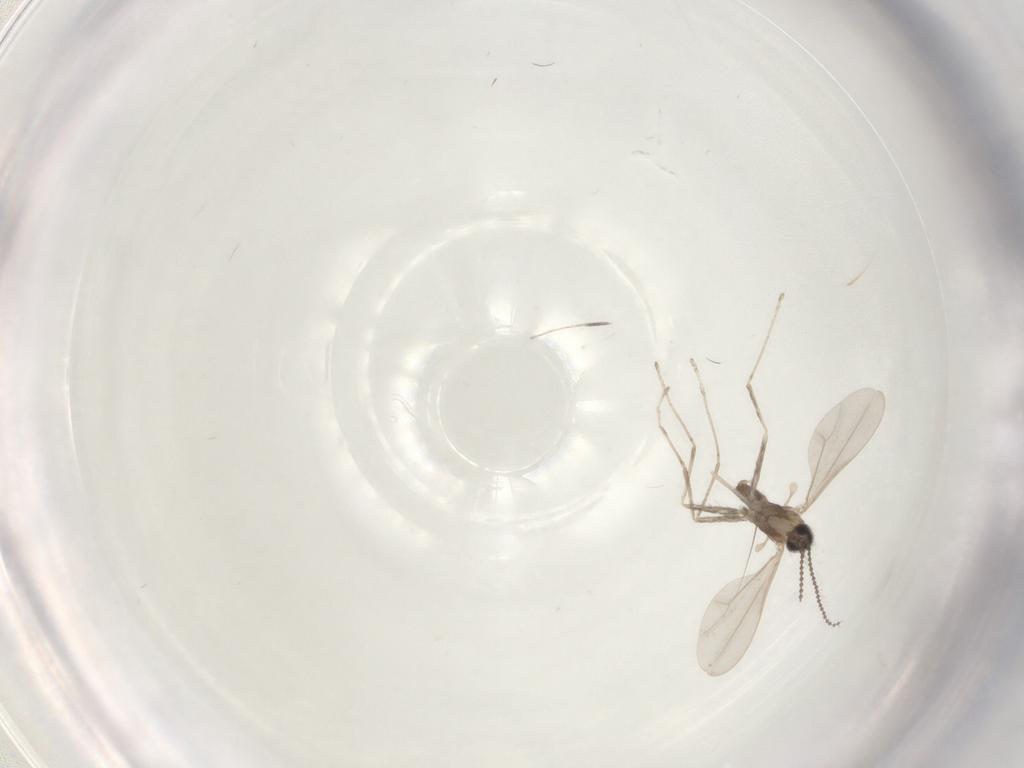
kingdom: Animalia
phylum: Arthropoda
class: Insecta
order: Diptera
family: Cecidomyiidae
